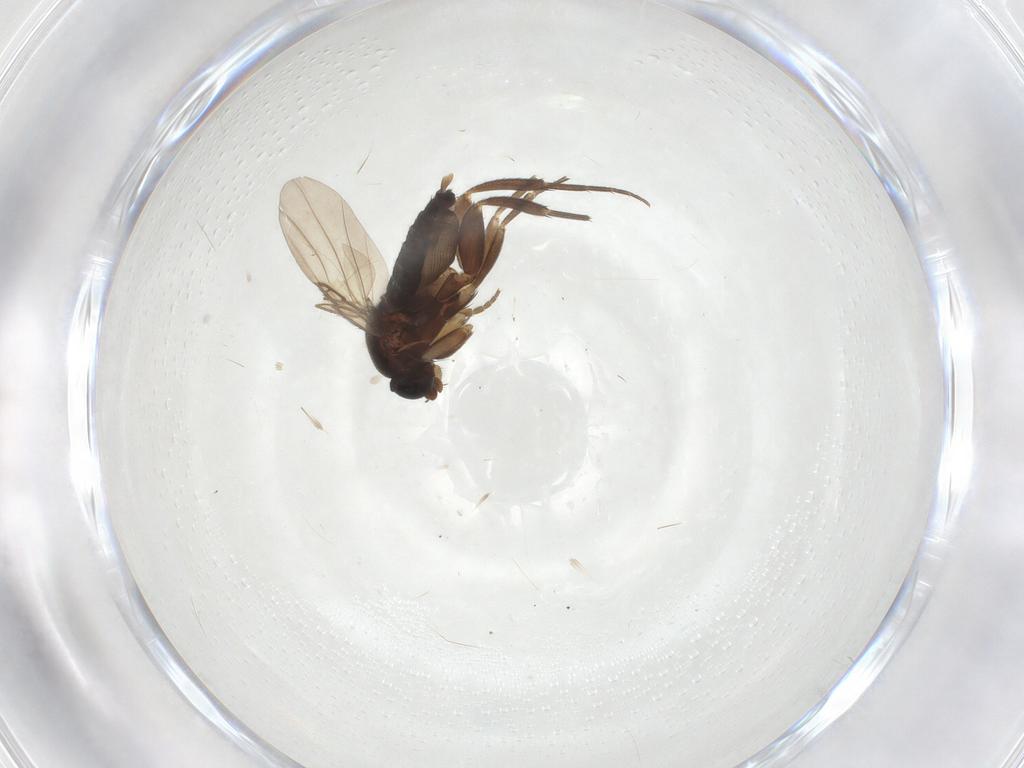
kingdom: Animalia
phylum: Arthropoda
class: Insecta
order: Diptera
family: Phoridae
